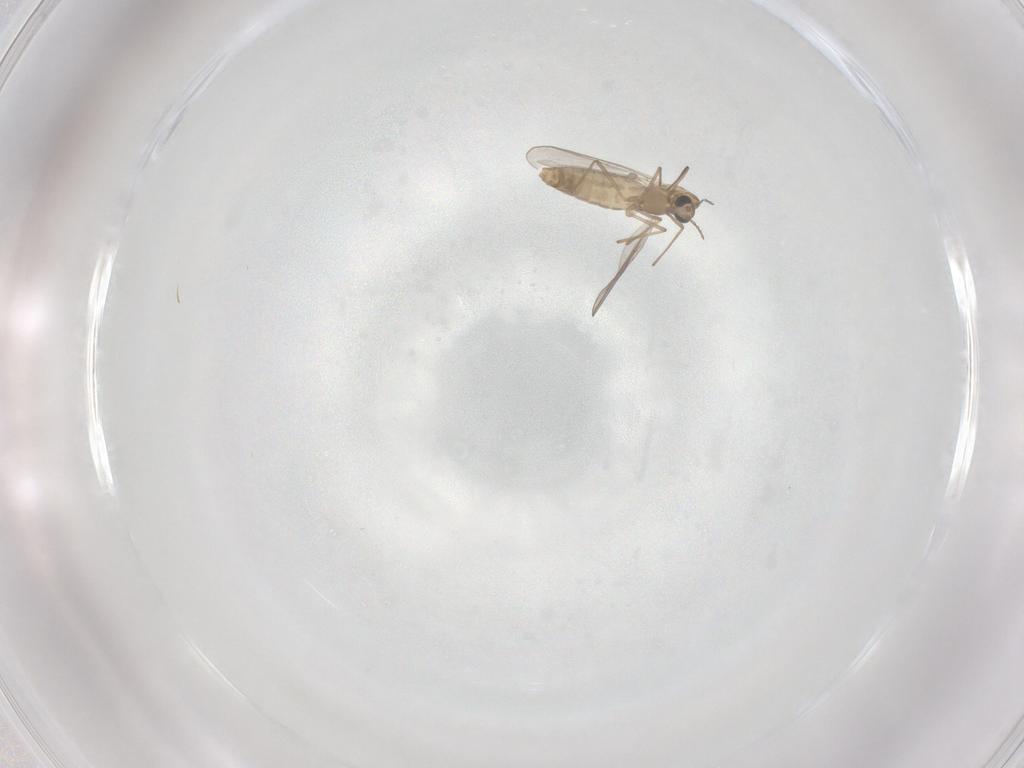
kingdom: Animalia
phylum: Arthropoda
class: Insecta
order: Diptera
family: Chironomidae
